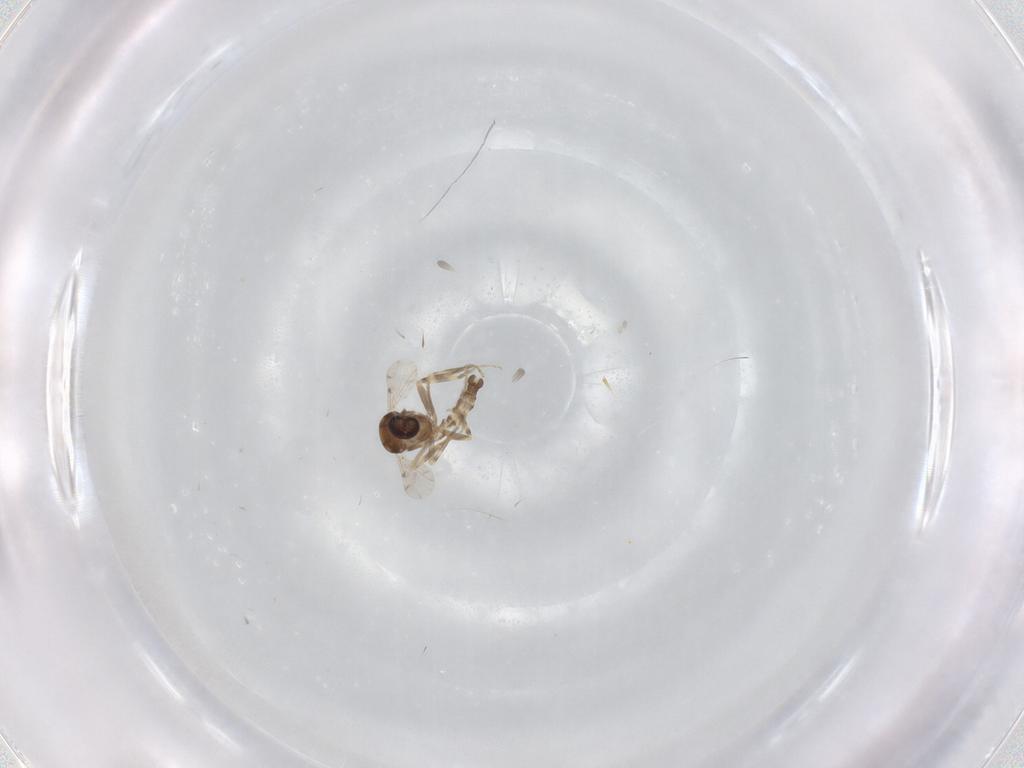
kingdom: Animalia
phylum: Arthropoda
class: Insecta
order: Diptera
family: Ceratopogonidae
